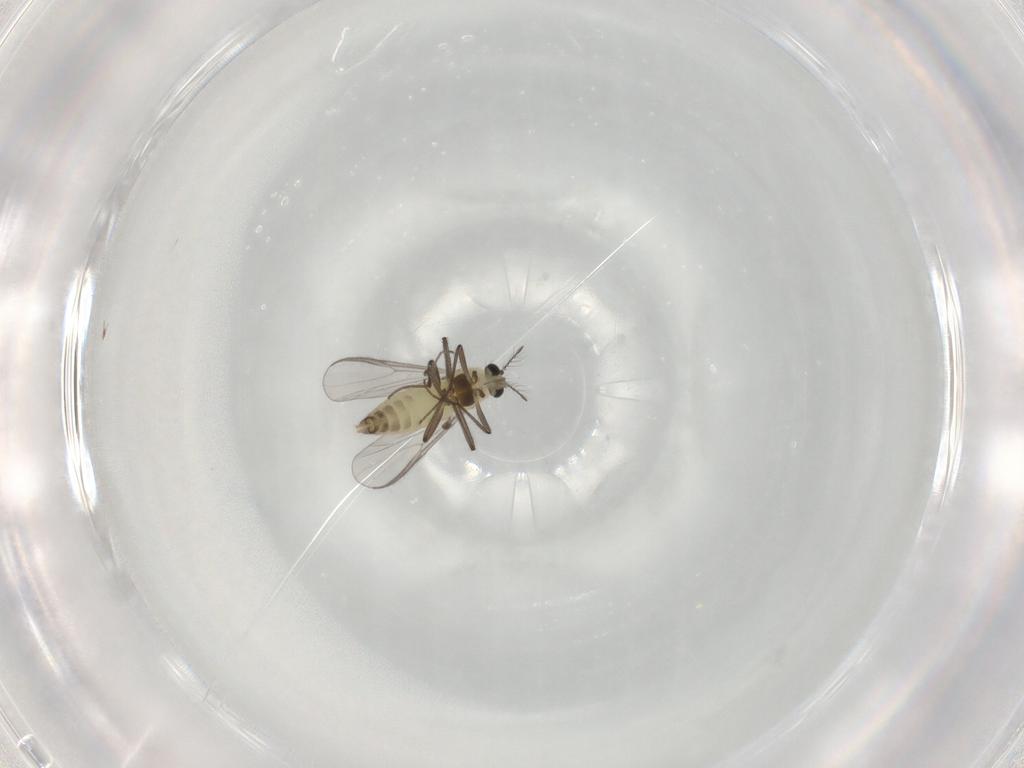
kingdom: Animalia
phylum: Arthropoda
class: Insecta
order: Diptera
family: Chironomidae
